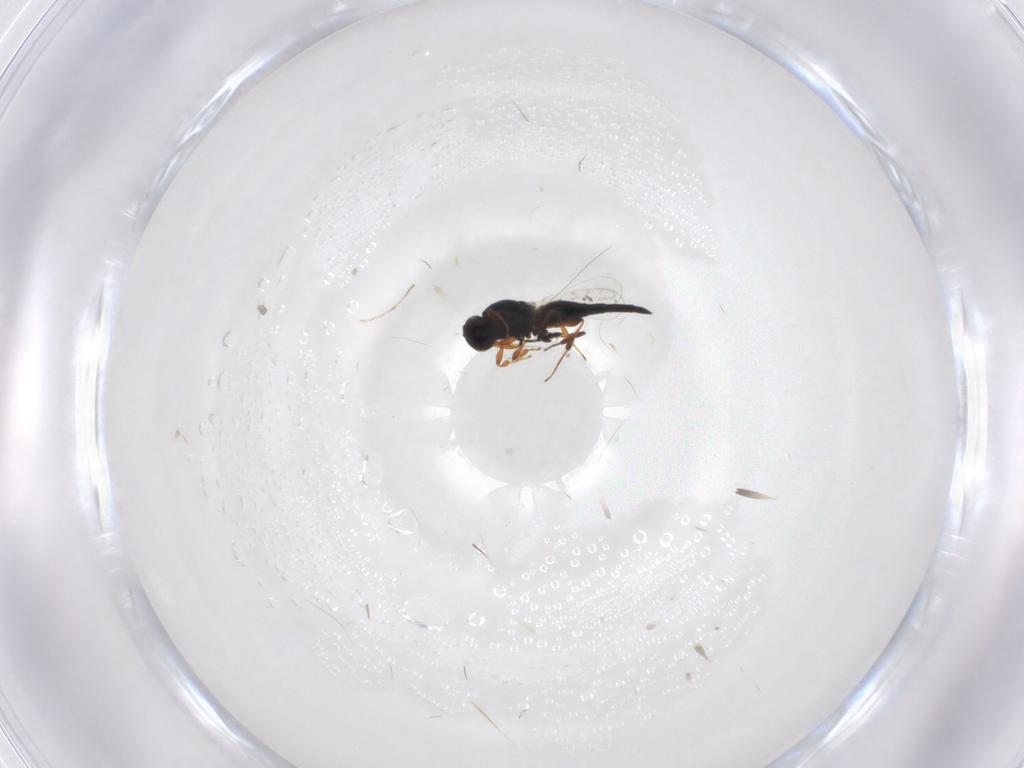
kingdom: Animalia
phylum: Arthropoda
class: Insecta
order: Hymenoptera
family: Platygastridae
